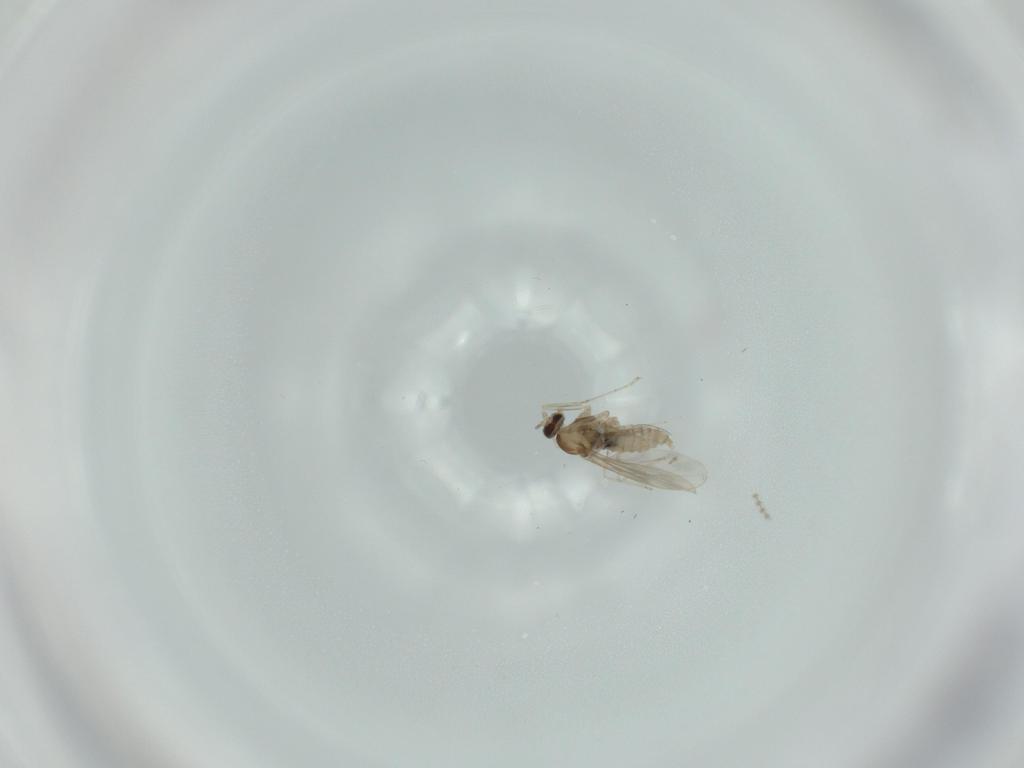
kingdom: Animalia
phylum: Arthropoda
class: Insecta
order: Diptera
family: Cecidomyiidae
